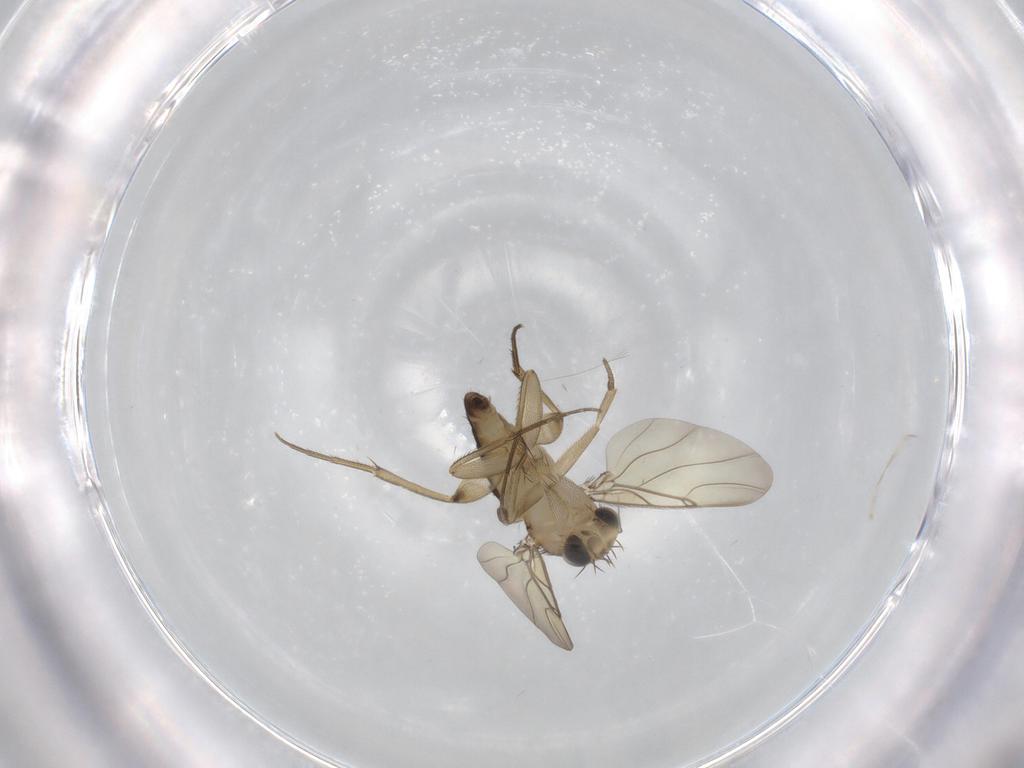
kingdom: Animalia
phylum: Arthropoda
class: Insecta
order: Diptera
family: Phoridae
